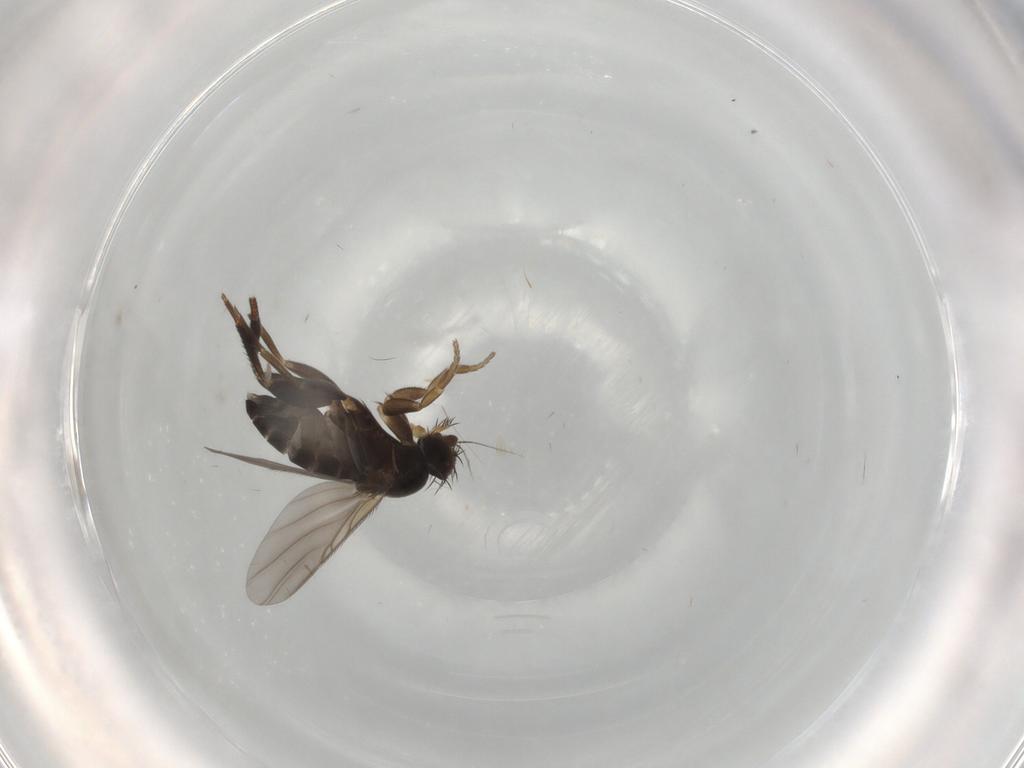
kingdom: Animalia
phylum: Arthropoda
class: Insecta
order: Diptera
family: Phoridae
